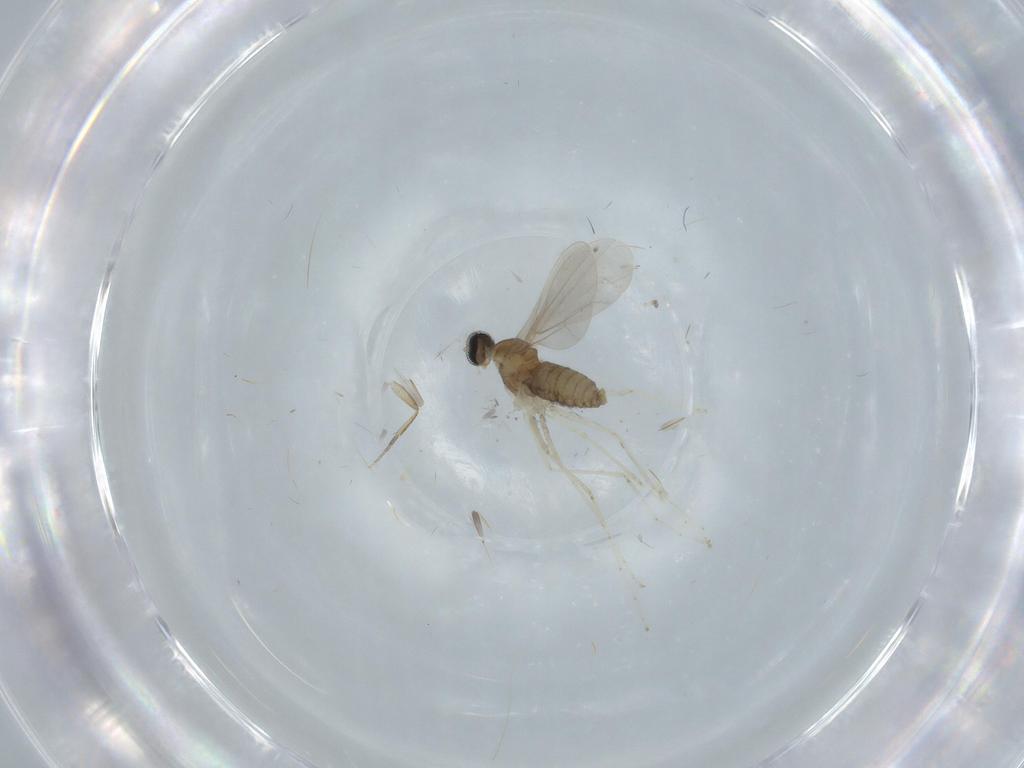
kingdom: Animalia
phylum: Arthropoda
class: Insecta
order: Diptera
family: Cecidomyiidae
